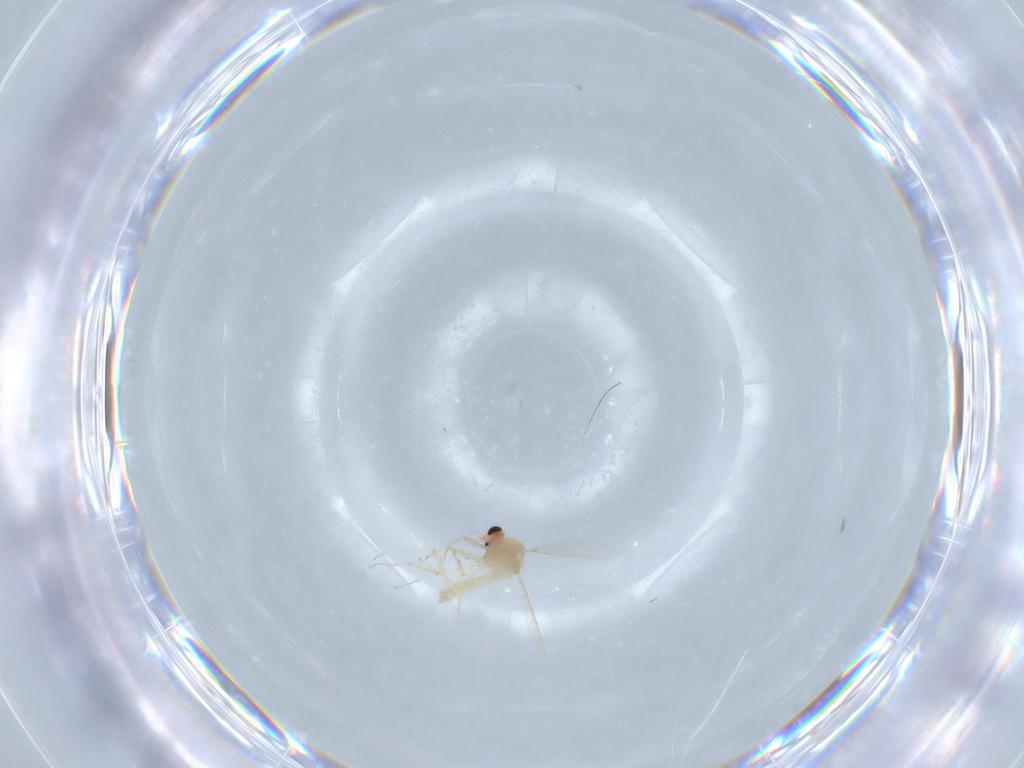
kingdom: Animalia
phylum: Arthropoda
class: Insecta
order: Diptera
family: Chironomidae
